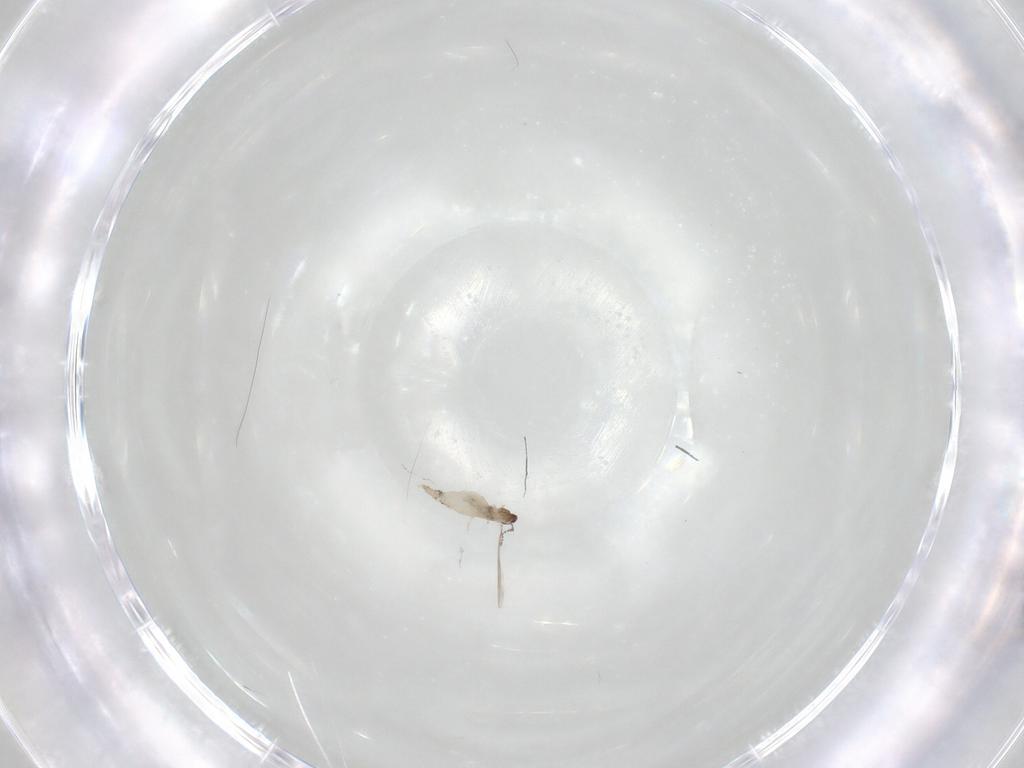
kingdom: Animalia
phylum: Arthropoda
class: Insecta
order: Diptera
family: Cecidomyiidae
